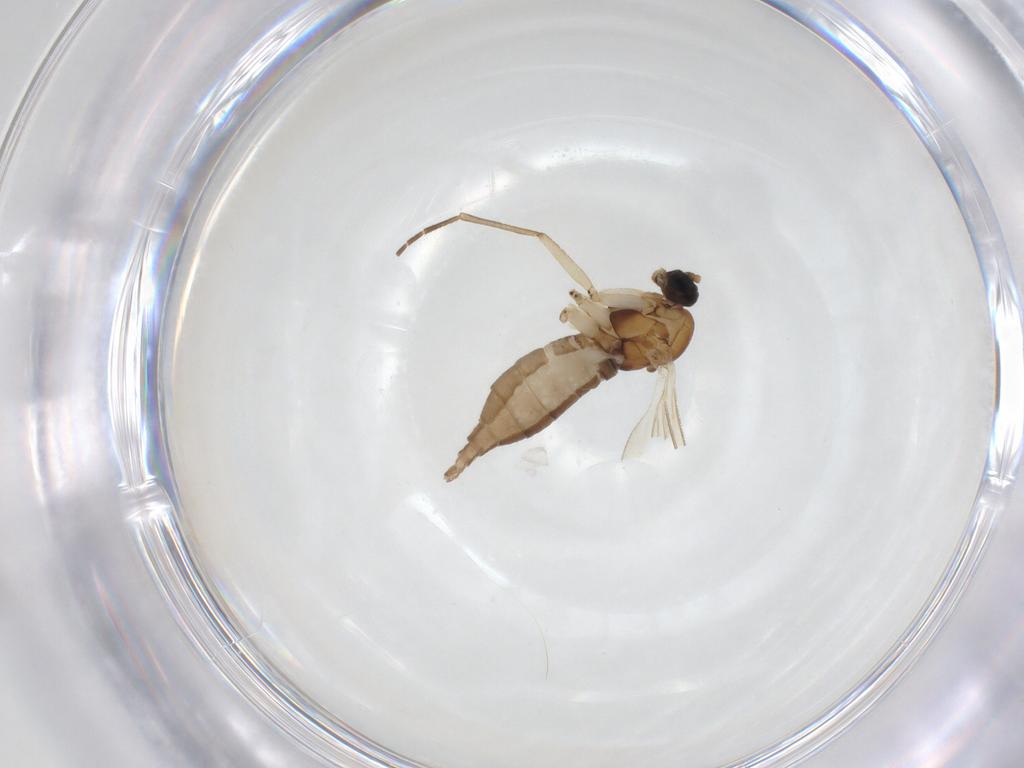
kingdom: Animalia
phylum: Arthropoda
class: Insecta
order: Diptera
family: Sciaridae
